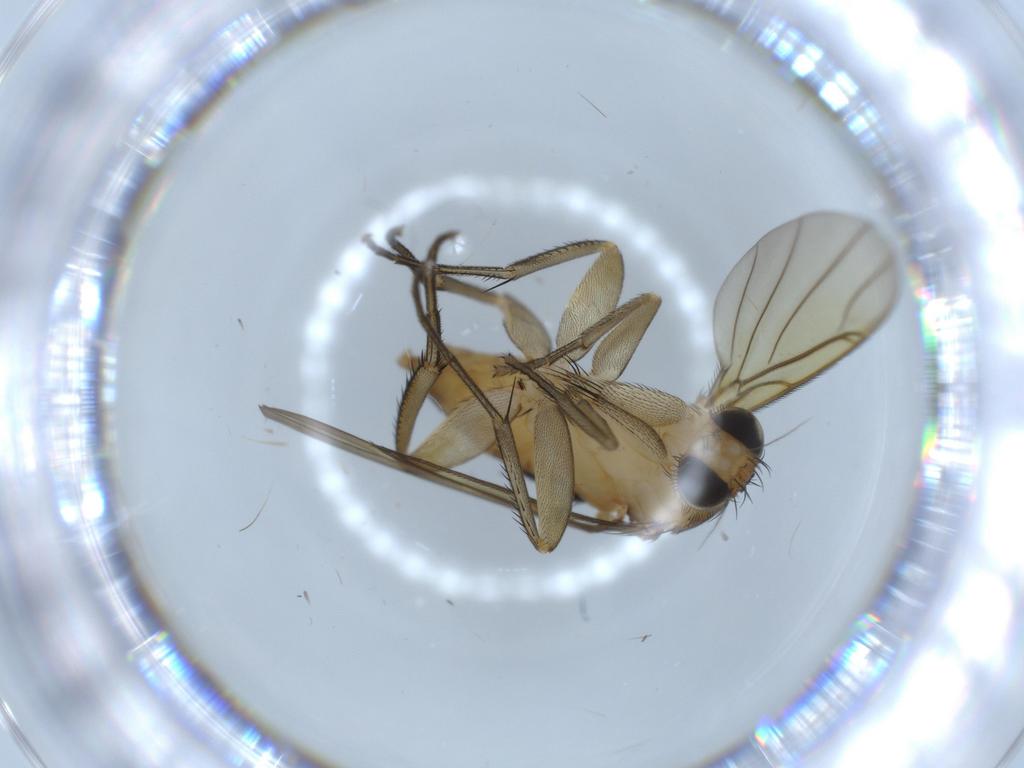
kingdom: Animalia
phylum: Arthropoda
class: Insecta
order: Diptera
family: Phoridae
